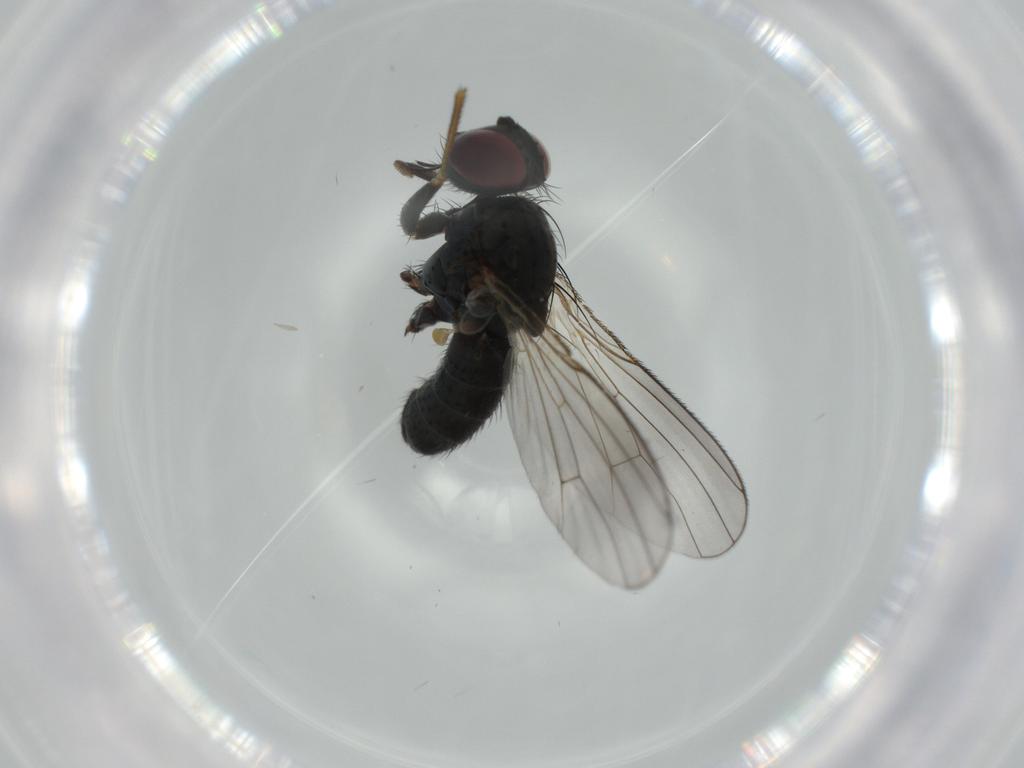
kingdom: Animalia
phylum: Arthropoda
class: Insecta
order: Diptera
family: Muscidae
